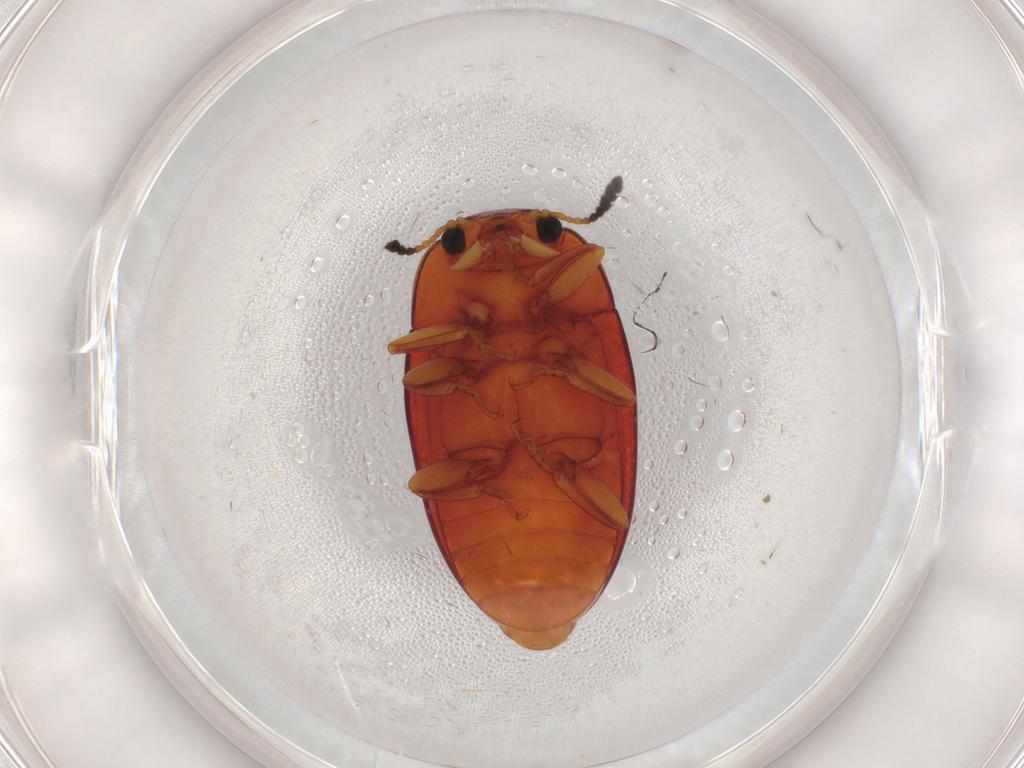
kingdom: Animalia
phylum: Arthropoda
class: Insecta
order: Coleoptera
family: Erotylidae
